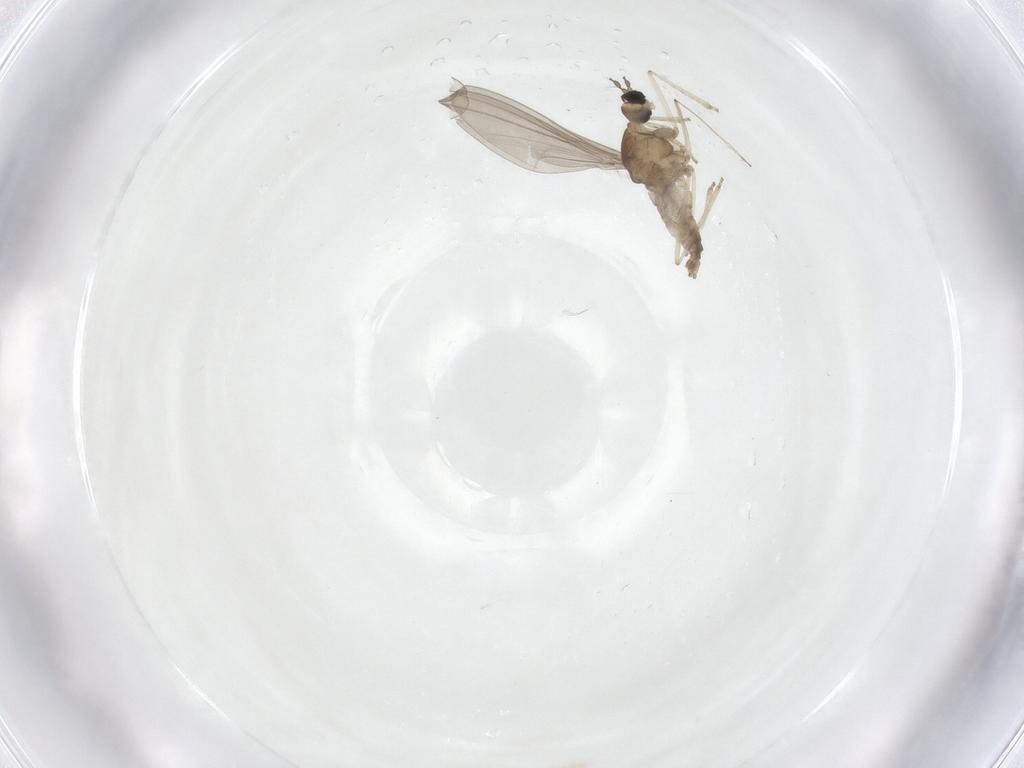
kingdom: Animalia
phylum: Arthropoda
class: Insecta
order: Diptera
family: Cecidomyiidae
